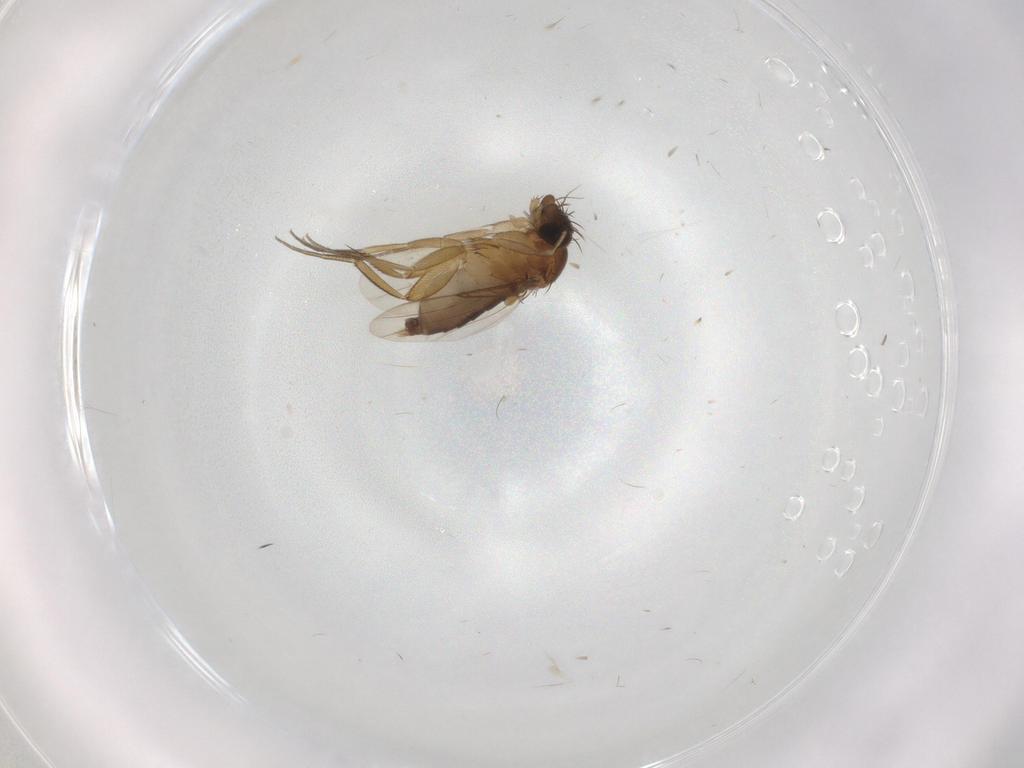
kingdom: Animalia
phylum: Arthropoda
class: Insecta
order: Diptera
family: Phoridae
